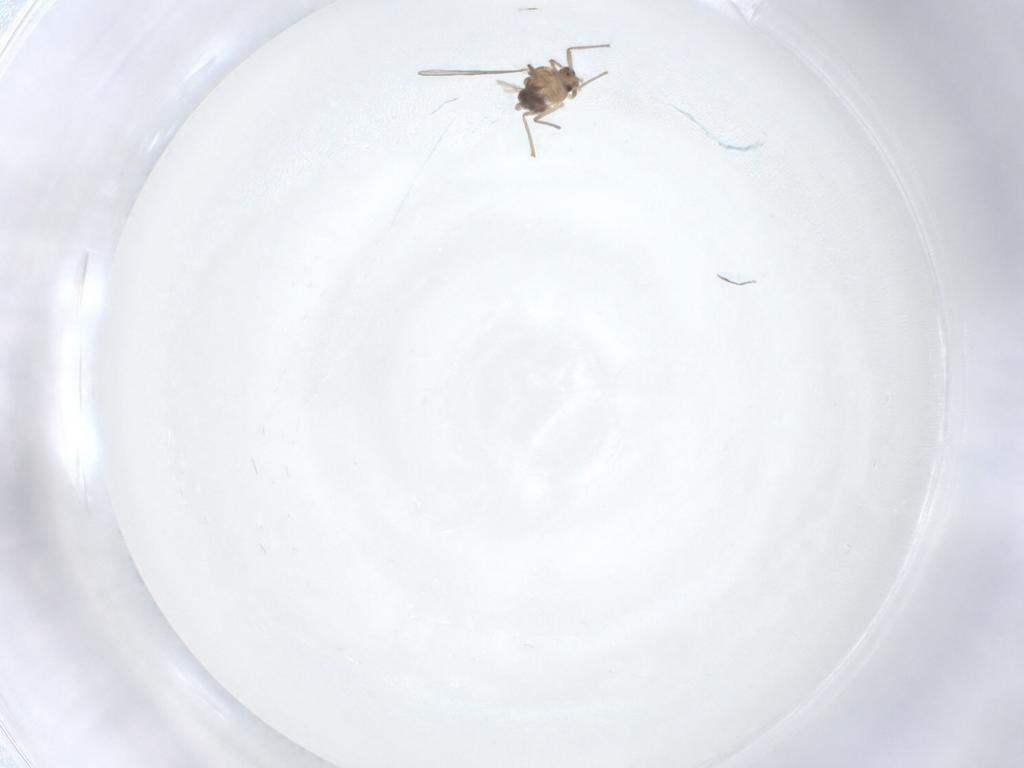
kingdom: Animalia
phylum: Arthropoda
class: Insecta
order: Diptera
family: Chironomidae
